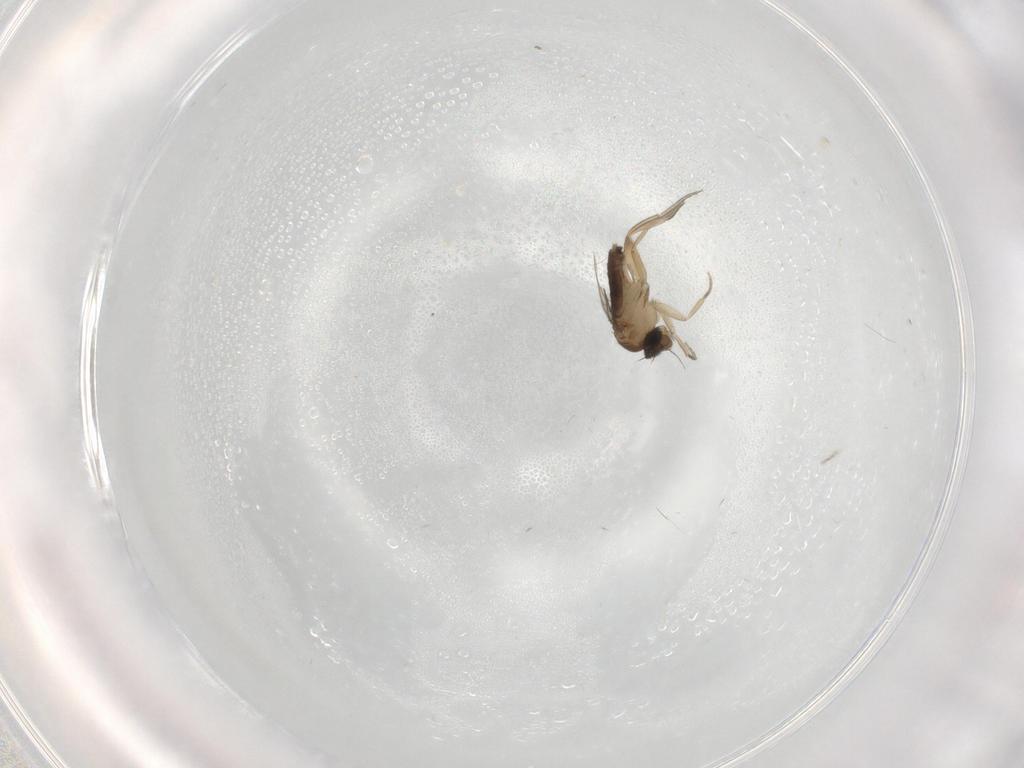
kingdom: Animalia
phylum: Arthropoda
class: Insecta
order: Diptera
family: Phoridae
